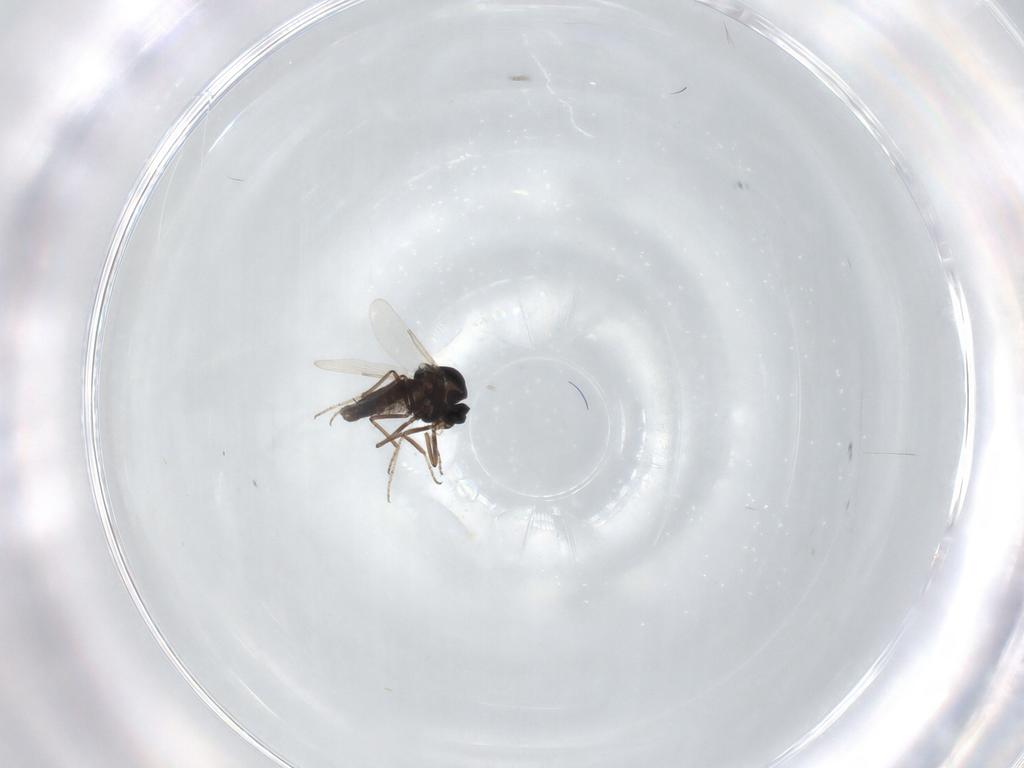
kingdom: Animalia
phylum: Arthropoda
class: Insecta
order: Diptera
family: Ceratopogonidae
